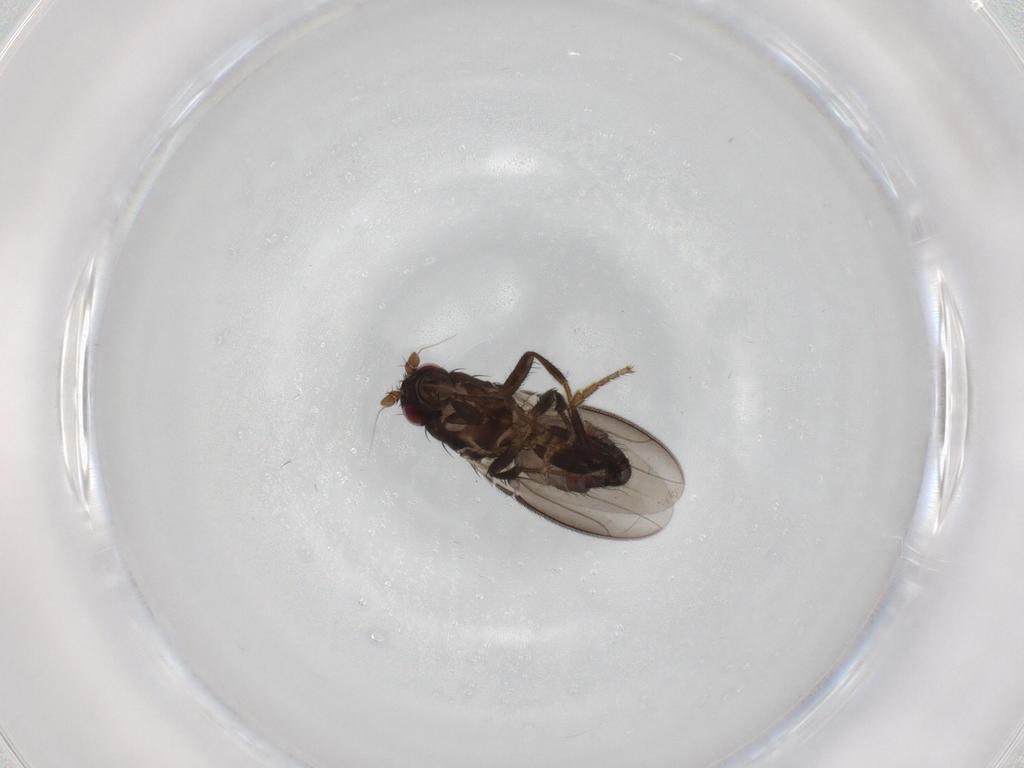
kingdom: Animalia
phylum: Arthropoda
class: Insecta
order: Diptera
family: Sphaeroceridae
